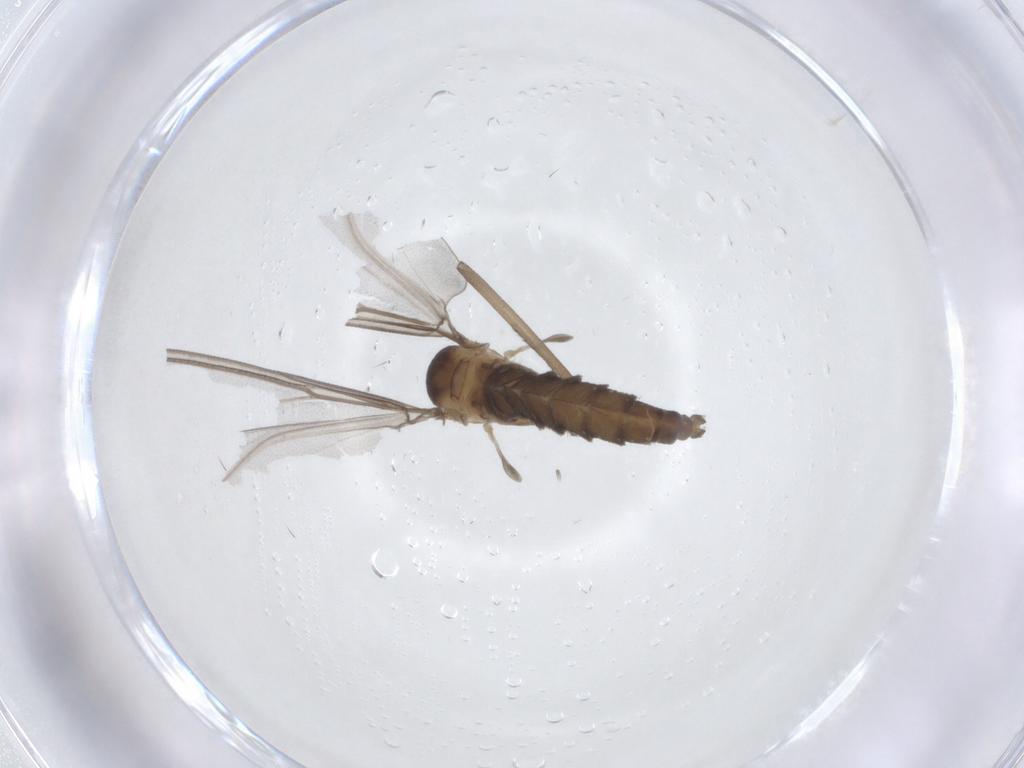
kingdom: Animalia
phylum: Arthropoda
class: Insecta
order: Diptera
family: Cecidomyiidae
